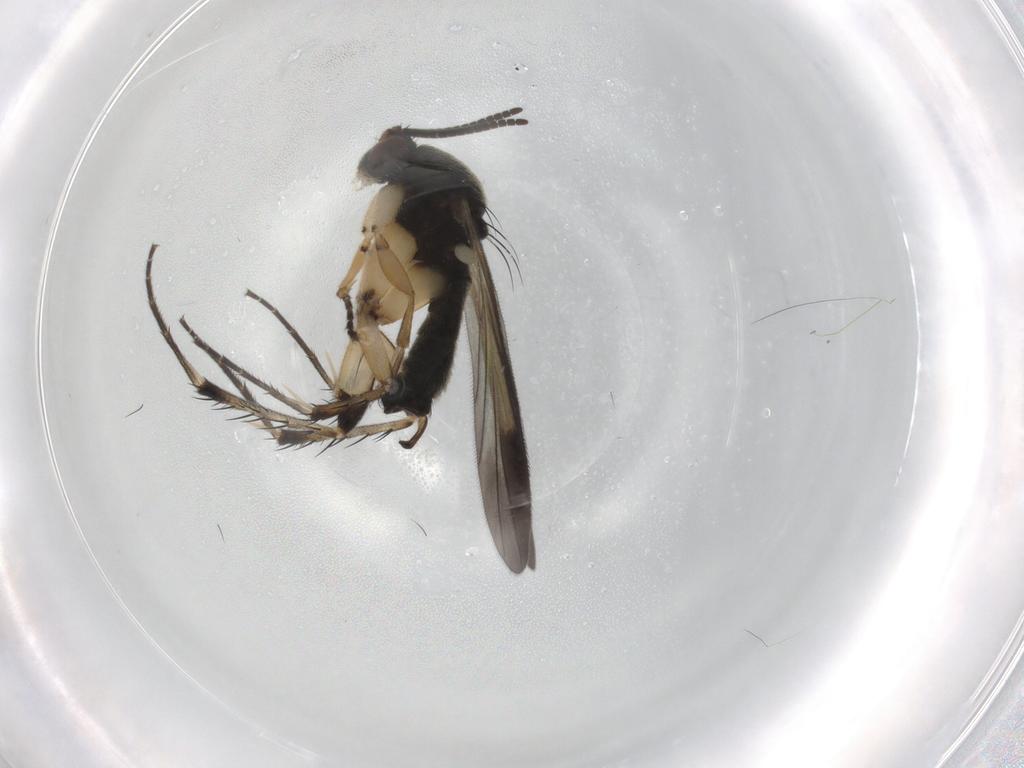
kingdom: Animalia
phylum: Arthropoda
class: Insecta
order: Diptera
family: Mycetophilidae
